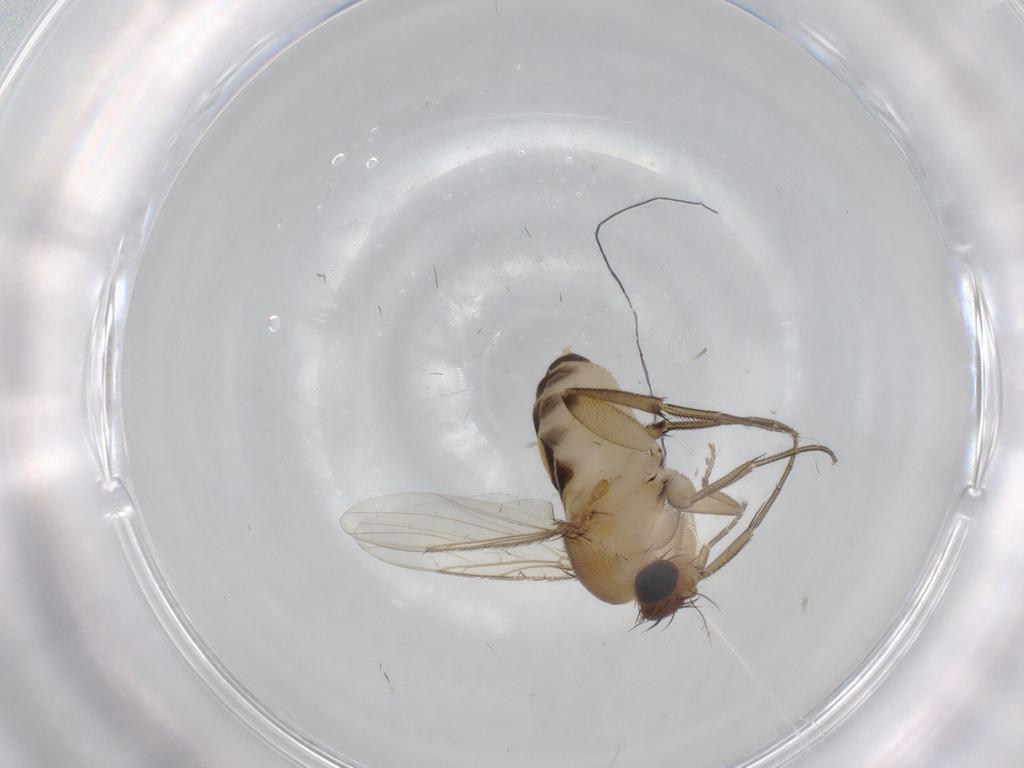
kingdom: Animalia
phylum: Arthropoda
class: Insecta
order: Diptera
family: Phoridae
